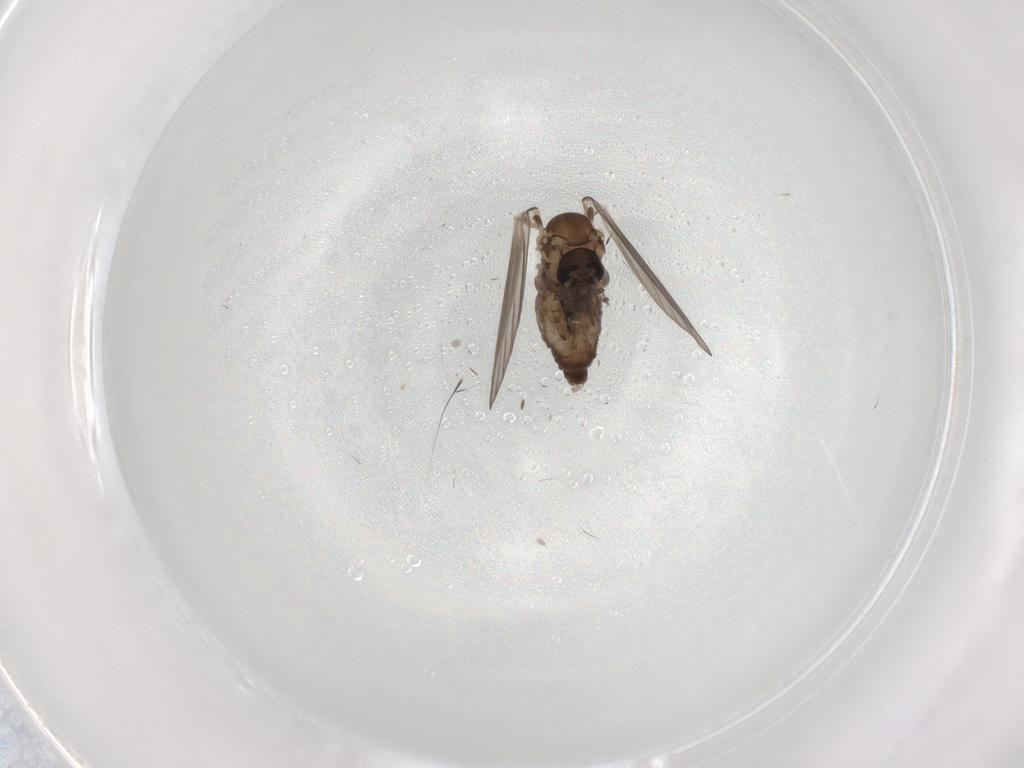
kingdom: Animalia
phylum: Arthropoda
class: Insecta
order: Diptera
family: Psychodidae
